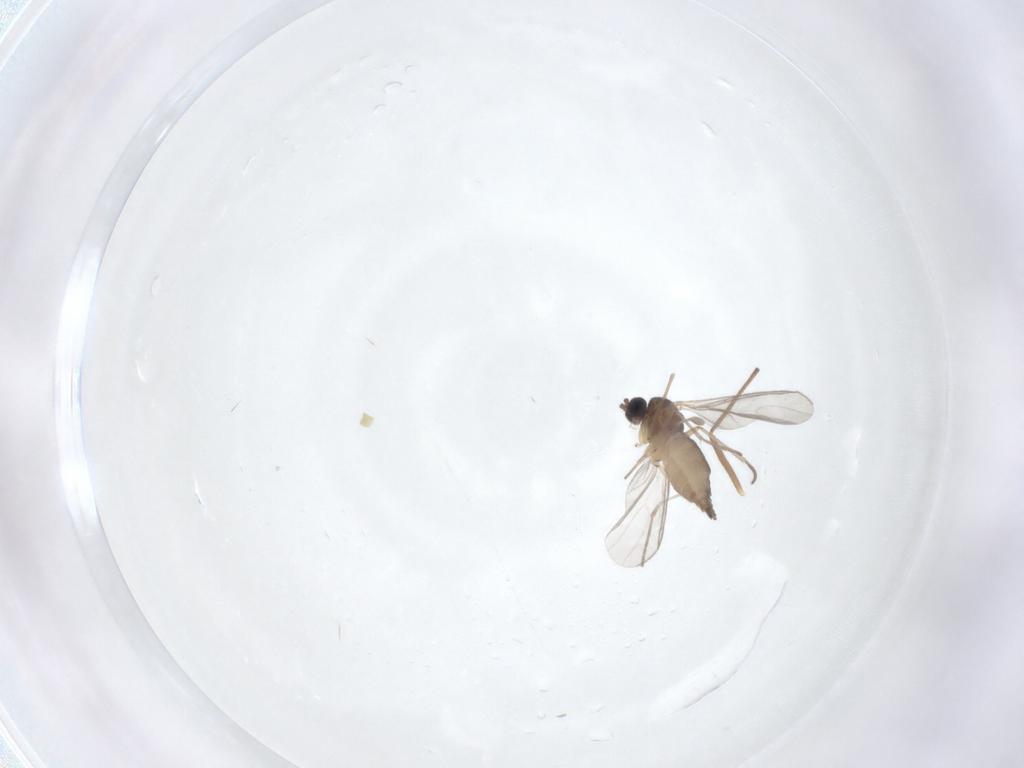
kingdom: Animalia
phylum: Arthropoda
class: Insecta
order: Diptera
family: Sciaridae
